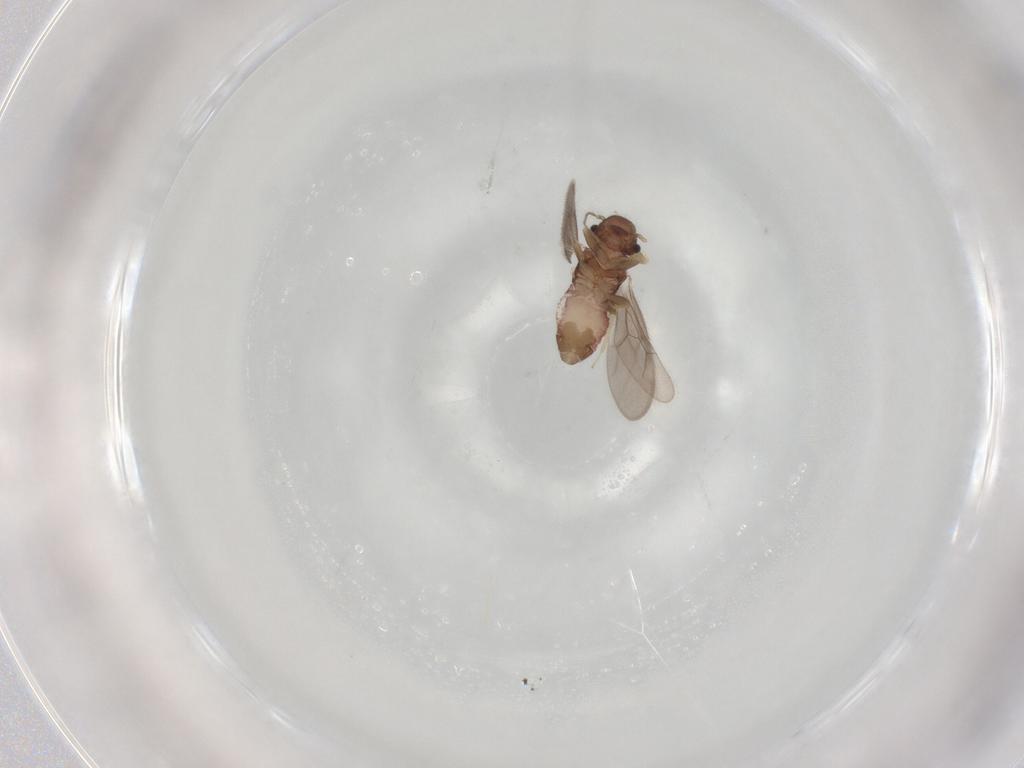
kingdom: Animalia
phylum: Arthropoda
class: Insecta
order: Psocodea
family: Archipsocidae
